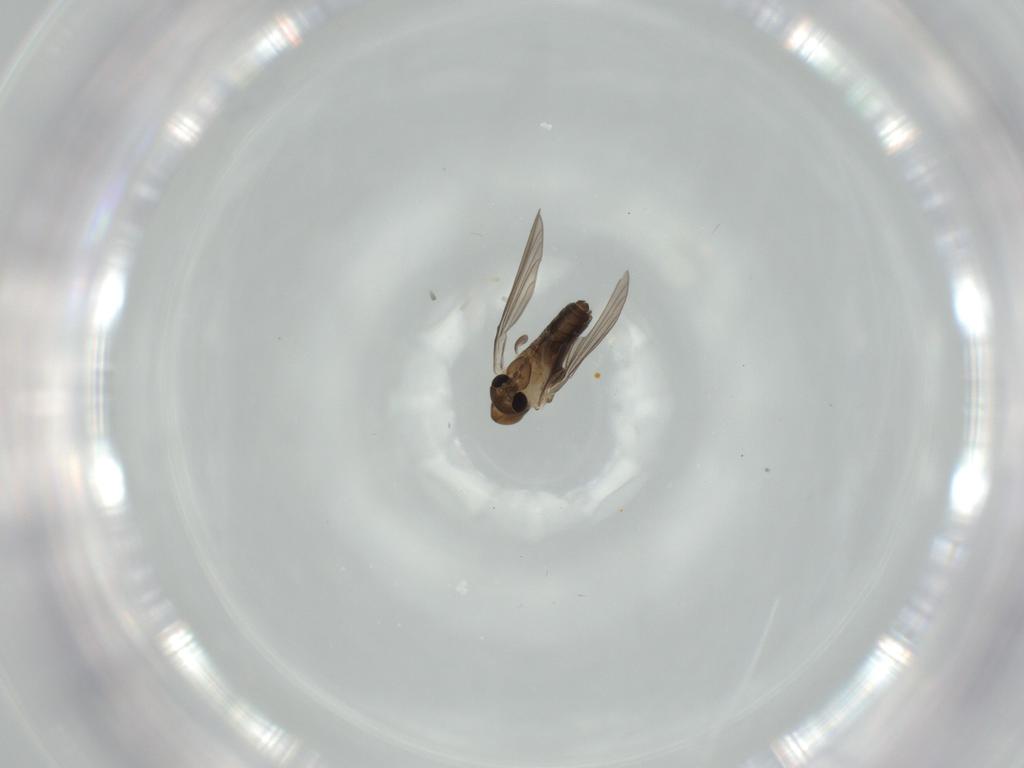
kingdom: Animalia
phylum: Arthropoda
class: Insecta
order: Diptera
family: Psychodidae
